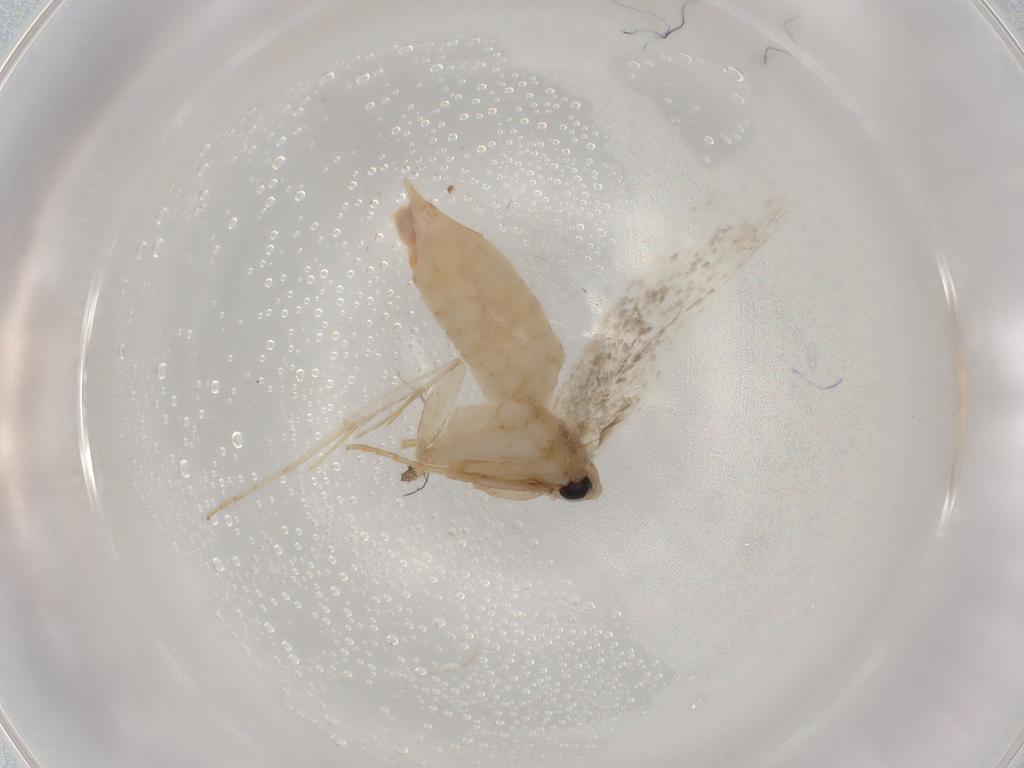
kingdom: Animalia
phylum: Arthropoda
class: Insecta
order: Lepidoptera
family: Cosmopterigidae
